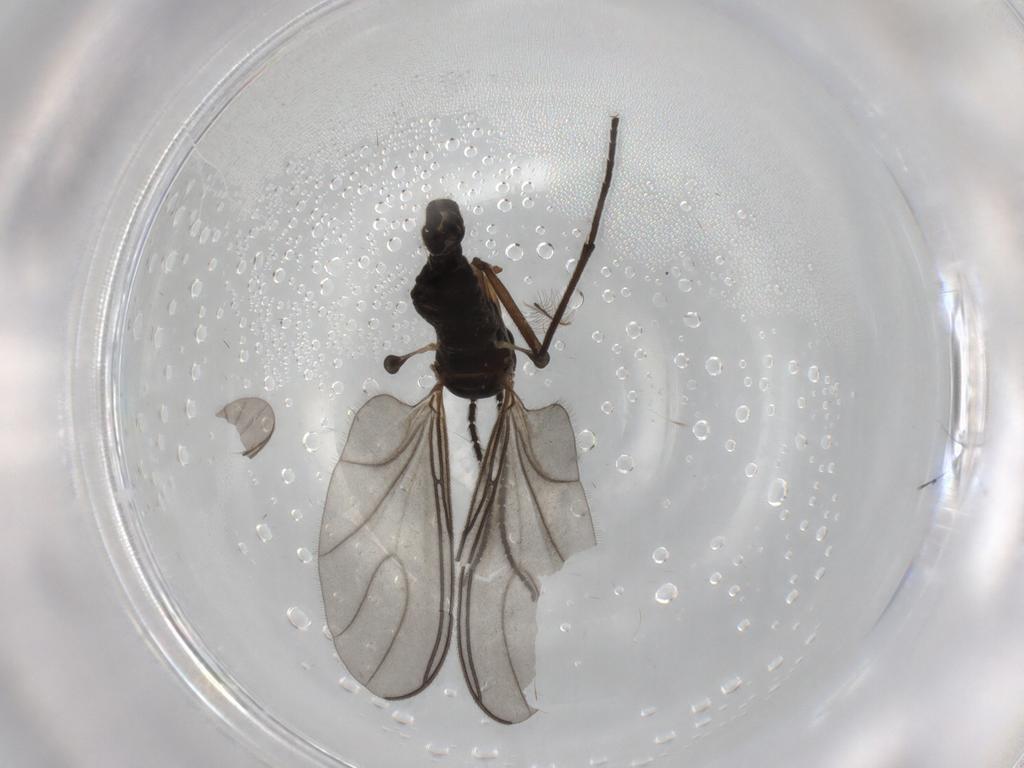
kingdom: Animalia
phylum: Arthropoda
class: Insecta
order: Diptera
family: Sciaridae
